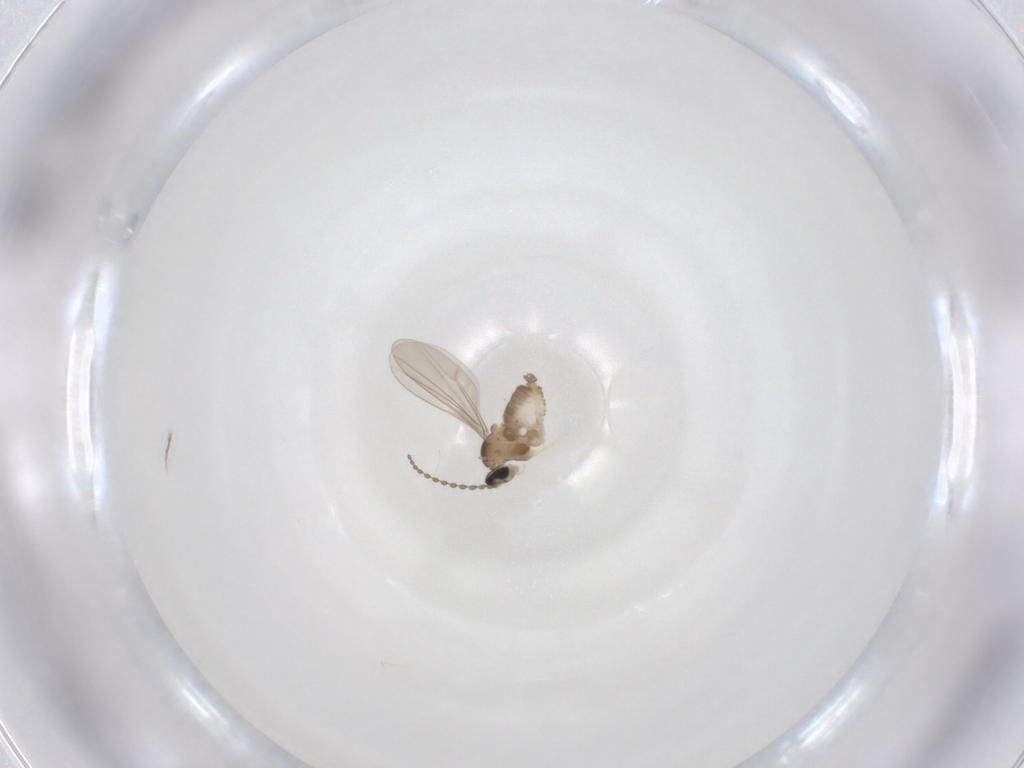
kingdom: Animalia
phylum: Arthropoda
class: Insecta
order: Diptera
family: Cecidomyiidae
